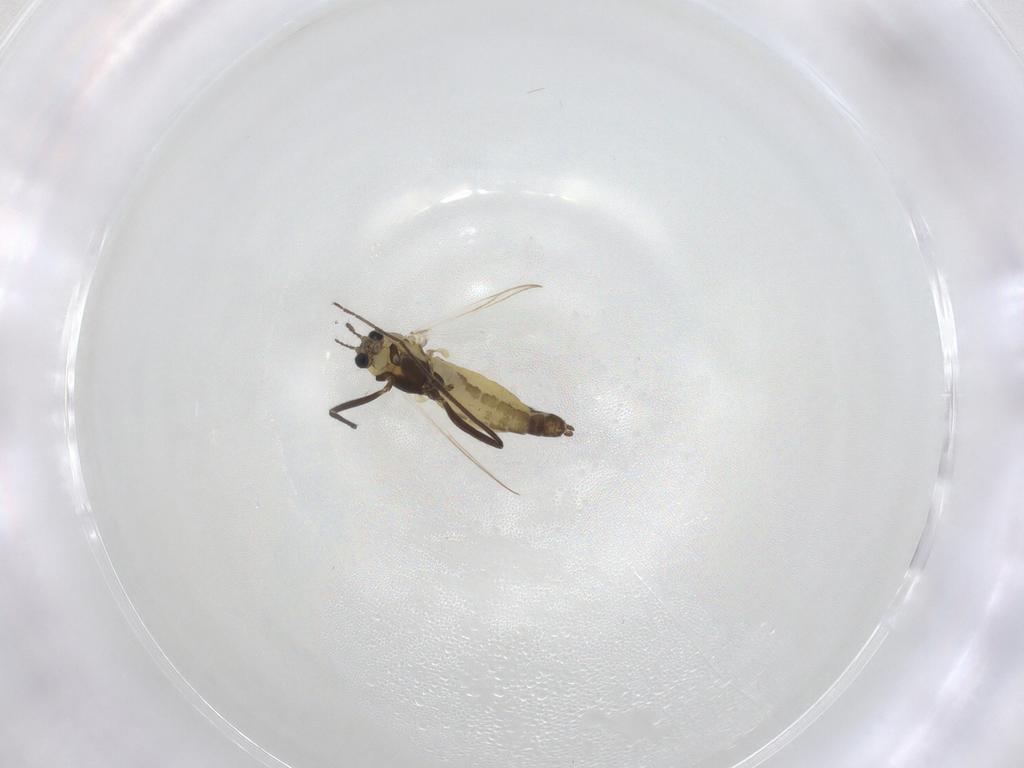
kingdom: Animalia
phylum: Arthropoda
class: Insecta
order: Diptera
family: Chironomidae
